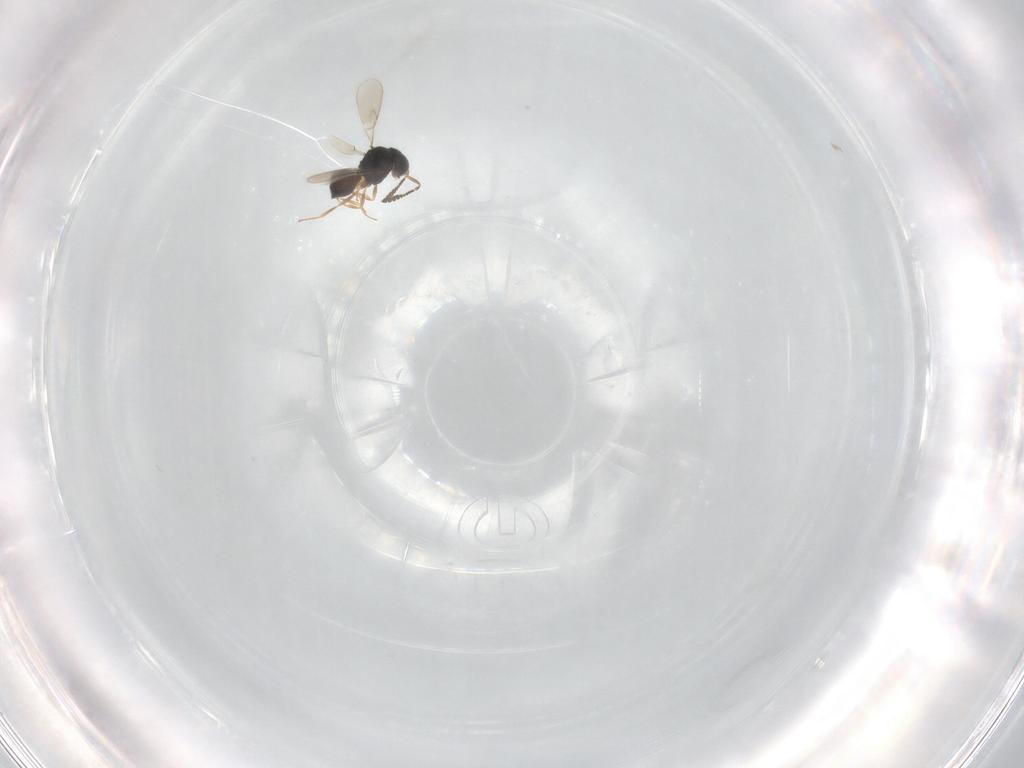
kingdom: Animalia
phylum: Arthropoda
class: Insecta
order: Hymenoptera
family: Scelionidae
